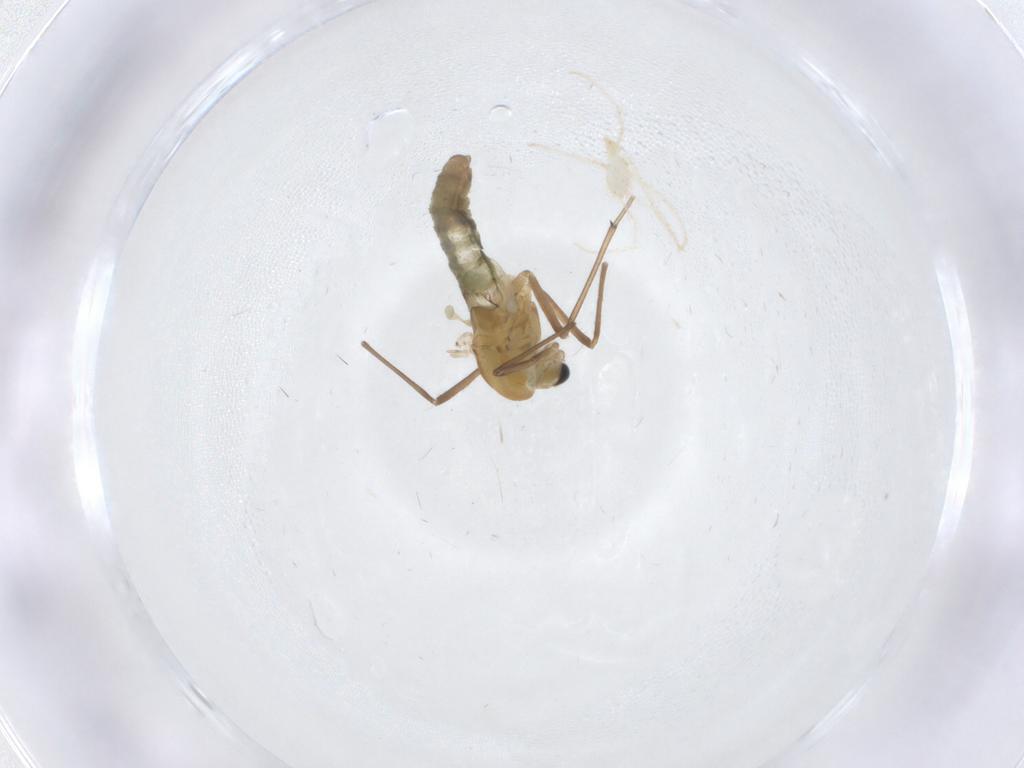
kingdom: Animalia
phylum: Arthropoda
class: Insecta
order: Diptera
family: Chironomidae
